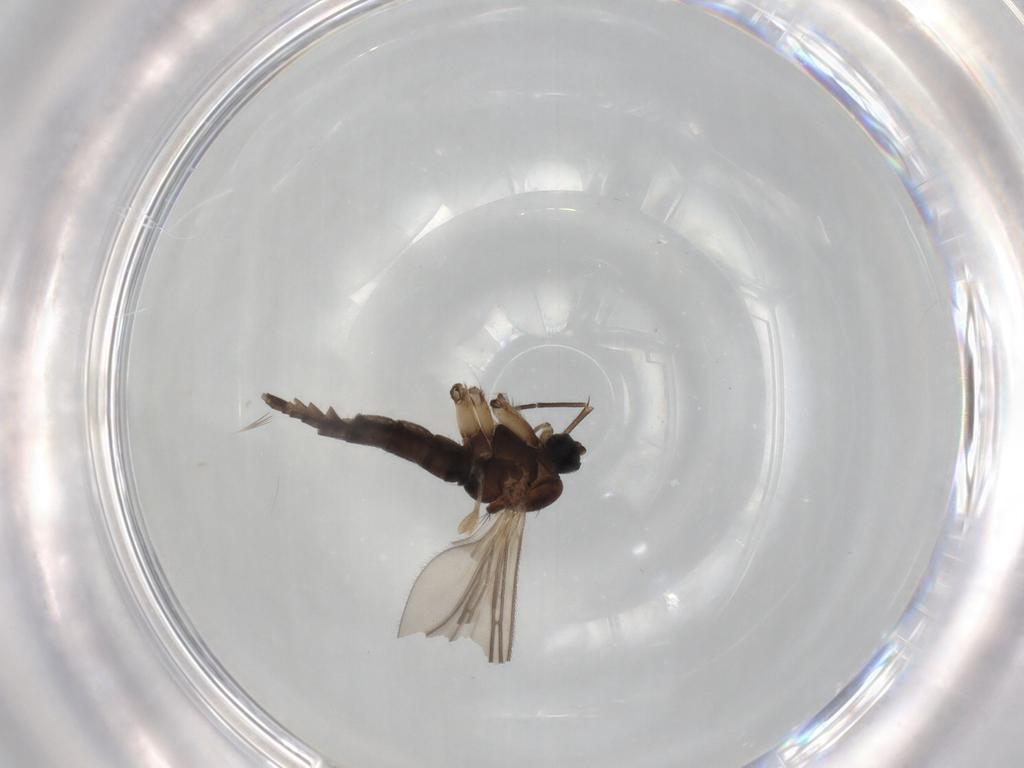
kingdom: Animalia
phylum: Arthropoda
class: Insecta
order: Diptera
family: Sciaridae
